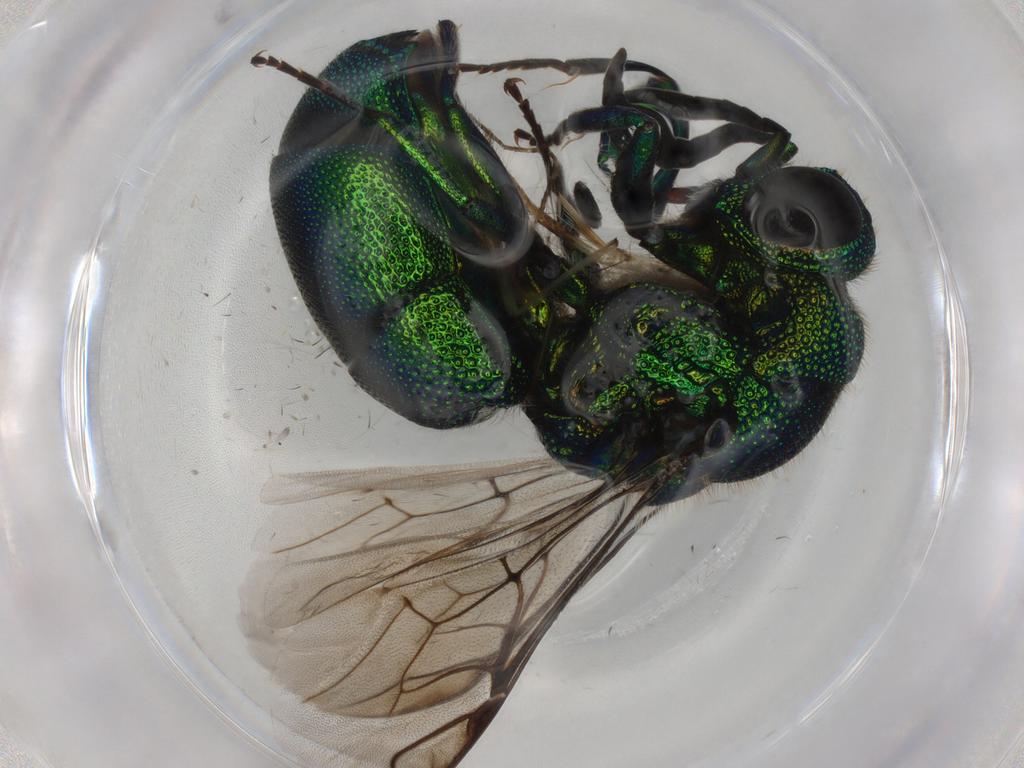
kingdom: Animalia
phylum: Arthropoda
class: Insecta
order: Hymenoptera
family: Chrysididae
